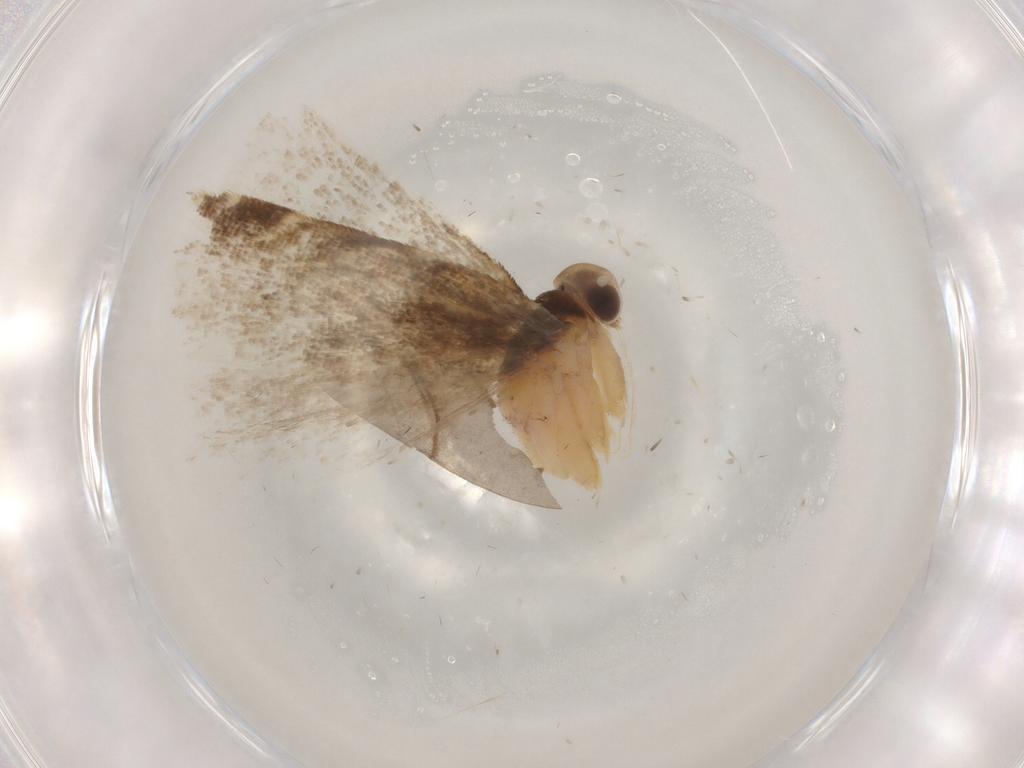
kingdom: Animalia
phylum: Arthropoda
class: Insecta
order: Lepidoptera
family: Gelechiidae
